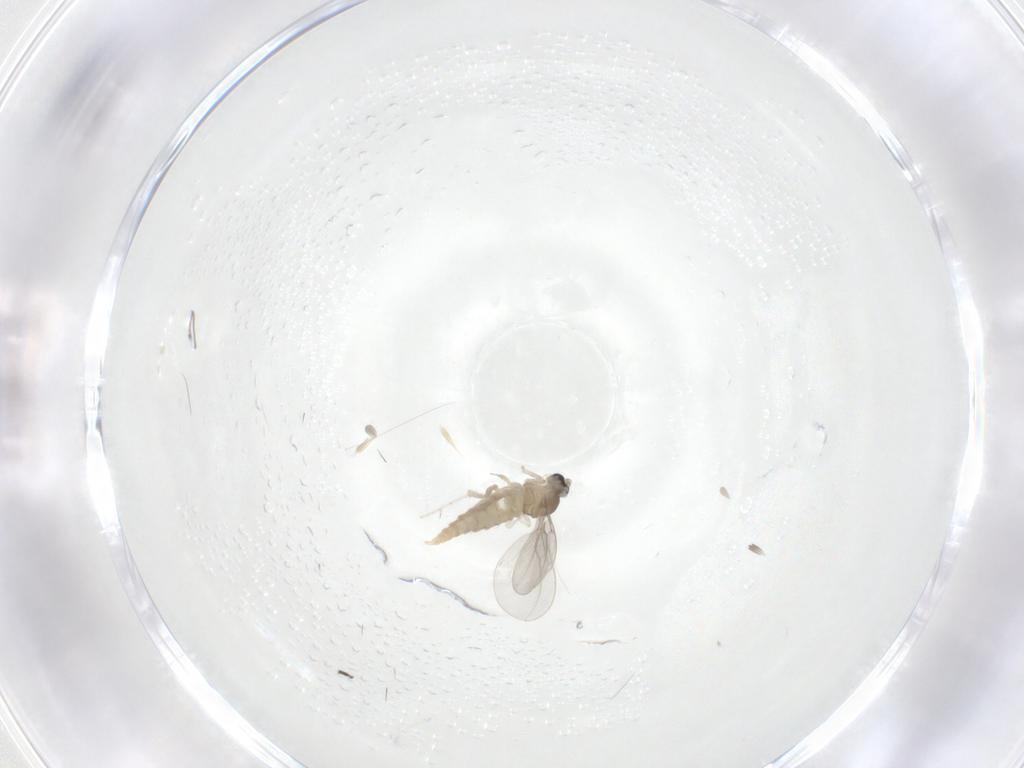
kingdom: Animalia
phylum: Arthropoda
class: Insecta
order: Diptera
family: Cecidomyiidae
